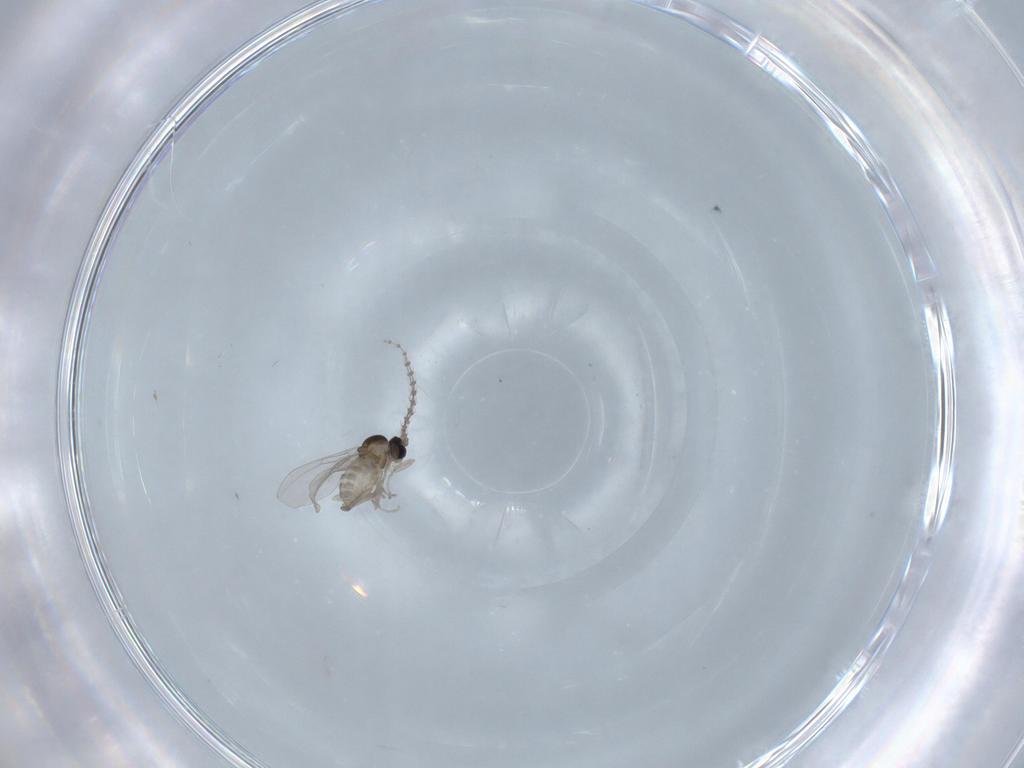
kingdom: Animalia
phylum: Arthropoda
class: Insecta
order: Diptera
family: Cecidomyiidae
